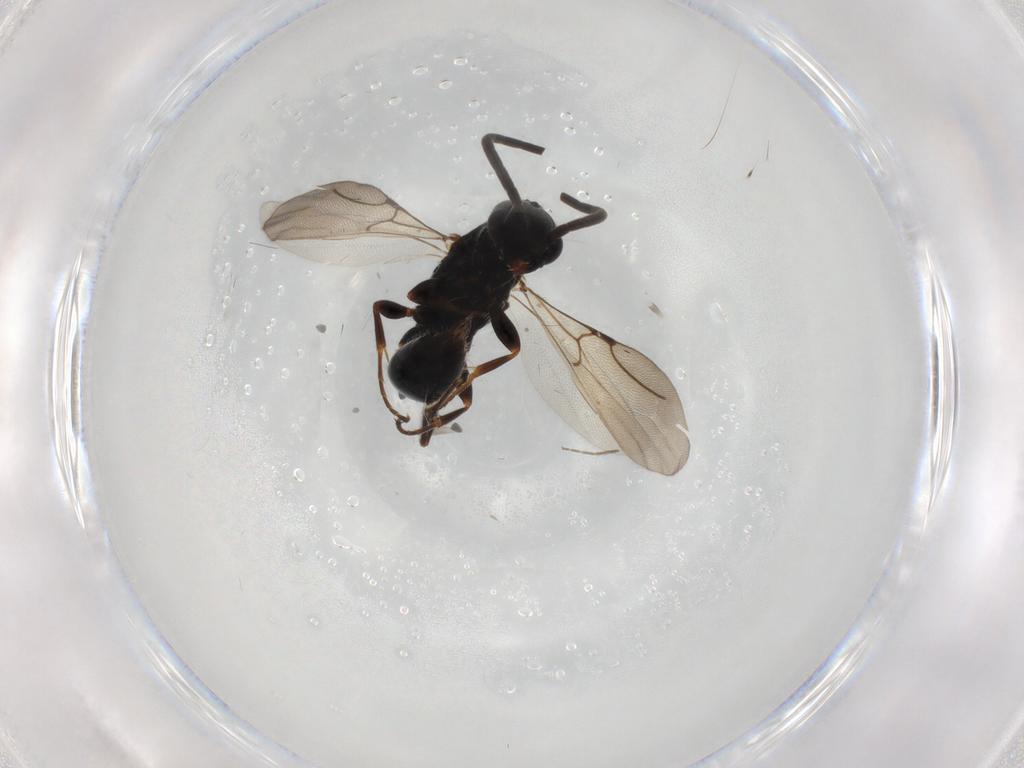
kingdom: Animalia
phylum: Arthropoda
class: Insecta
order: Hymenoptera
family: Bethylidae
